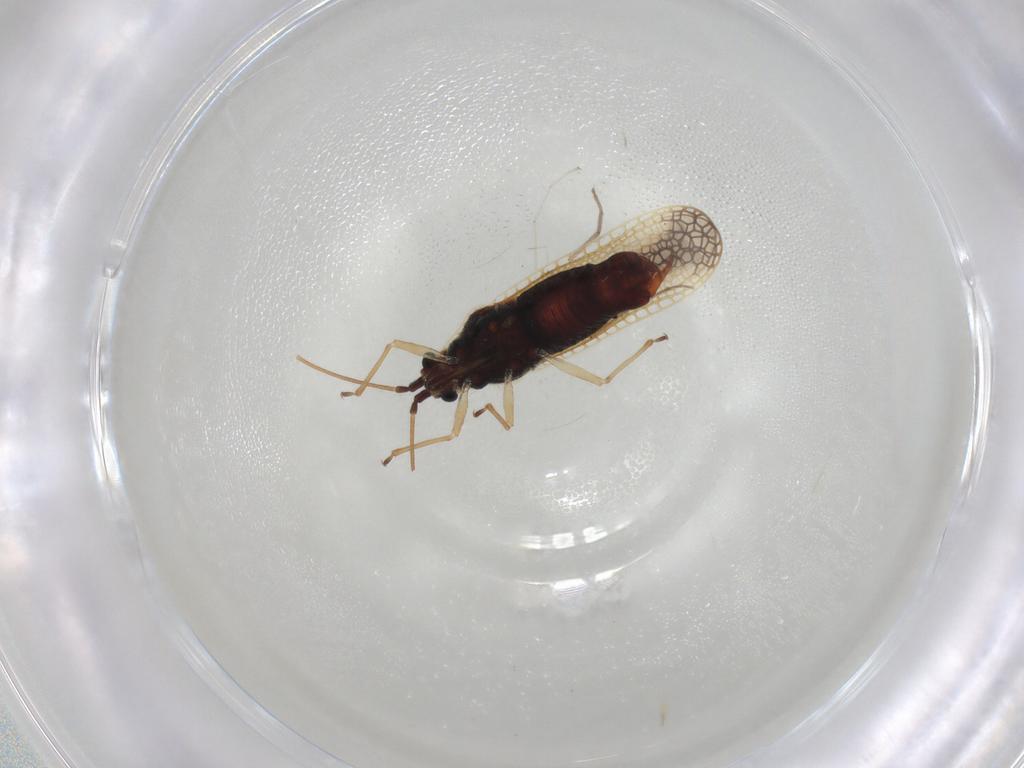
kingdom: Animalia
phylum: Arthropoda
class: Insecta
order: Hemiptera
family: Tingidae
